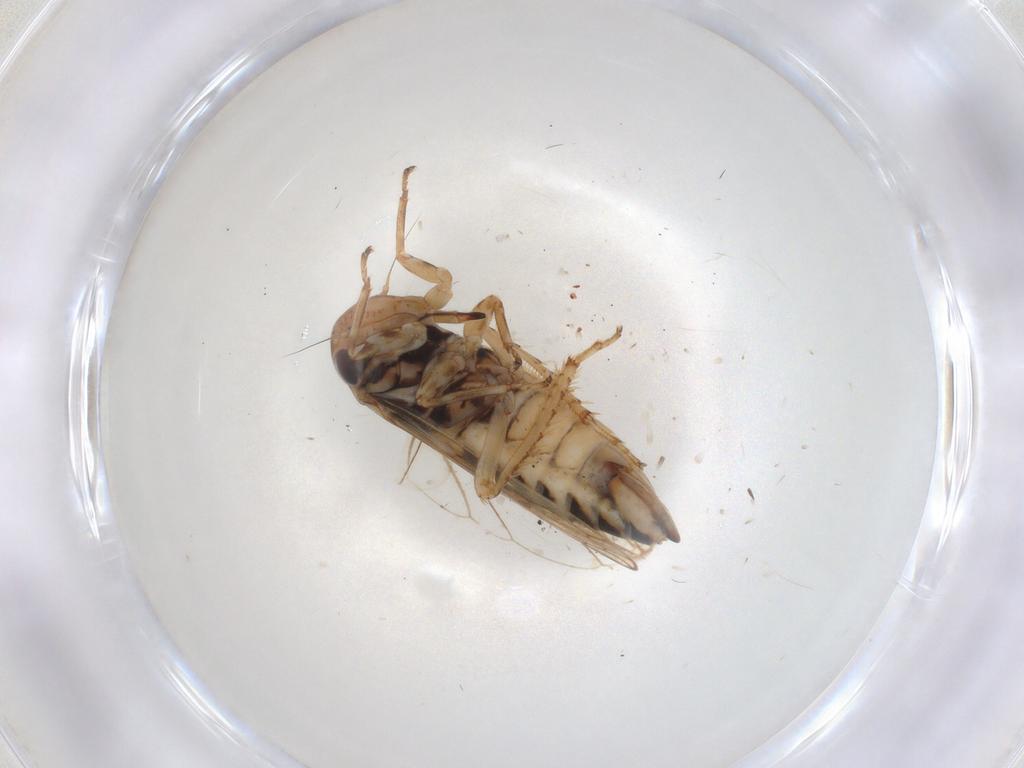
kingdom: Animalia
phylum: Arthropoda
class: Insecta
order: Hemiptera
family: Cicadellidae
